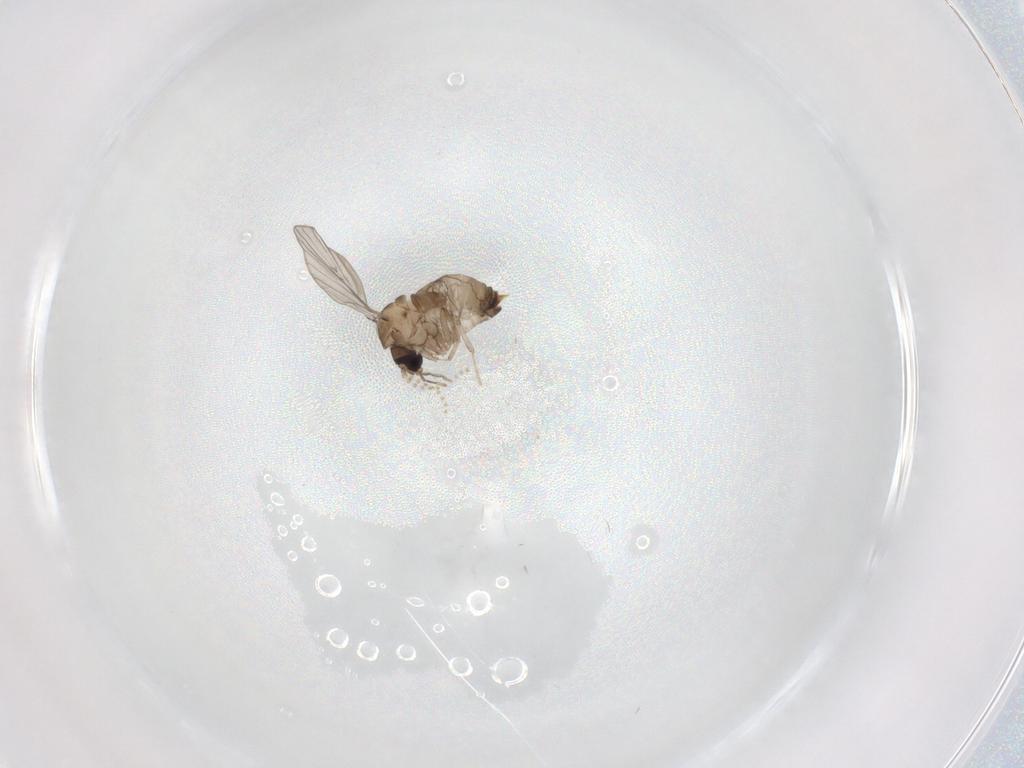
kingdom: Animalia
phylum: Arthropoda
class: Insecta
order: Diptera
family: Psychodidae
